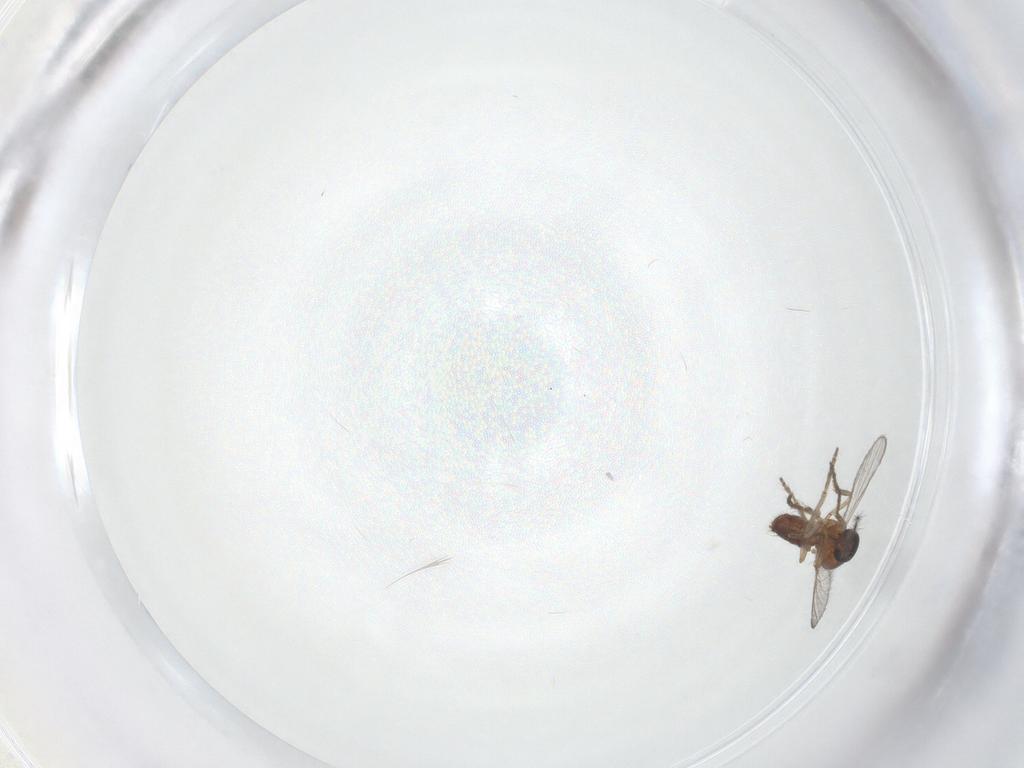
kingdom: Animalia
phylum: Arthropoda
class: Insecta
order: Diptera
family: Ceratopogonidae
